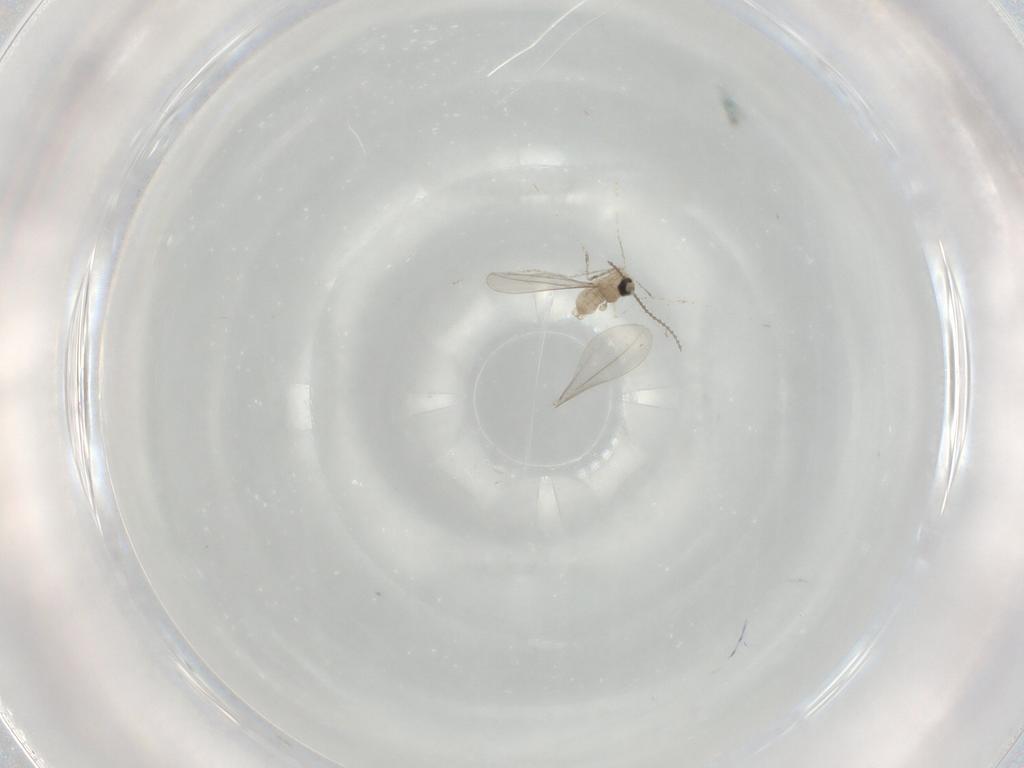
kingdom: Animalia
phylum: Arthropoda
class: Insecta
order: Diptera
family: Cecidomyiidae
